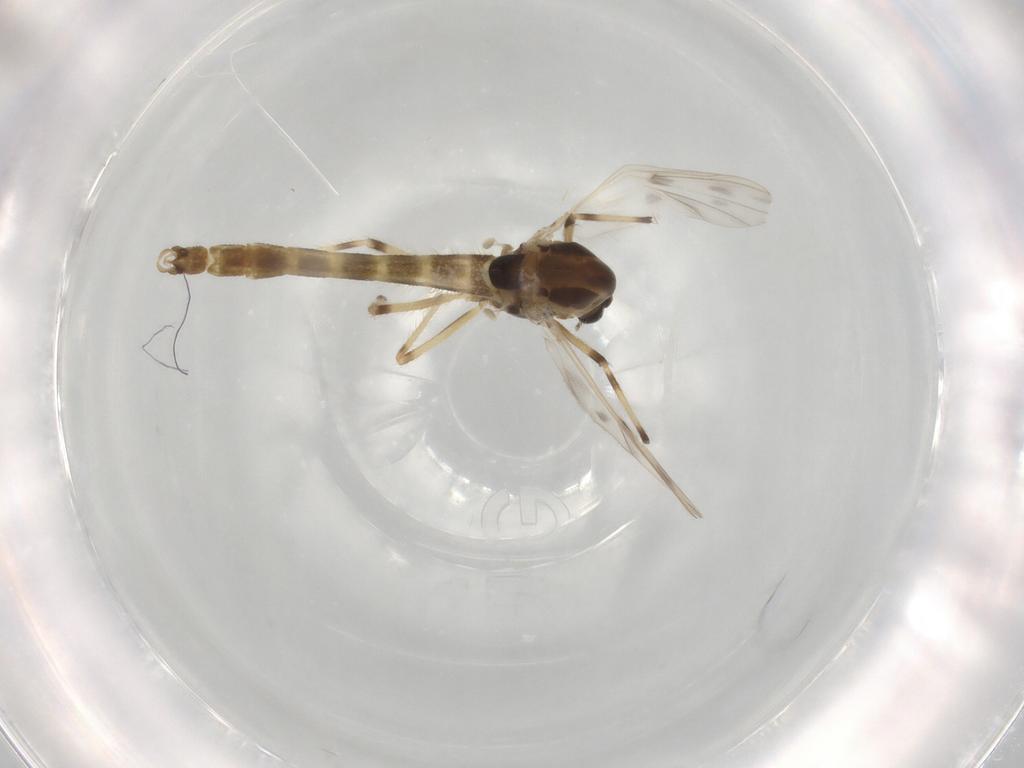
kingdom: Animalia
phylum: Arthropoda
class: Insecta
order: Diptera
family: Chironomidae
